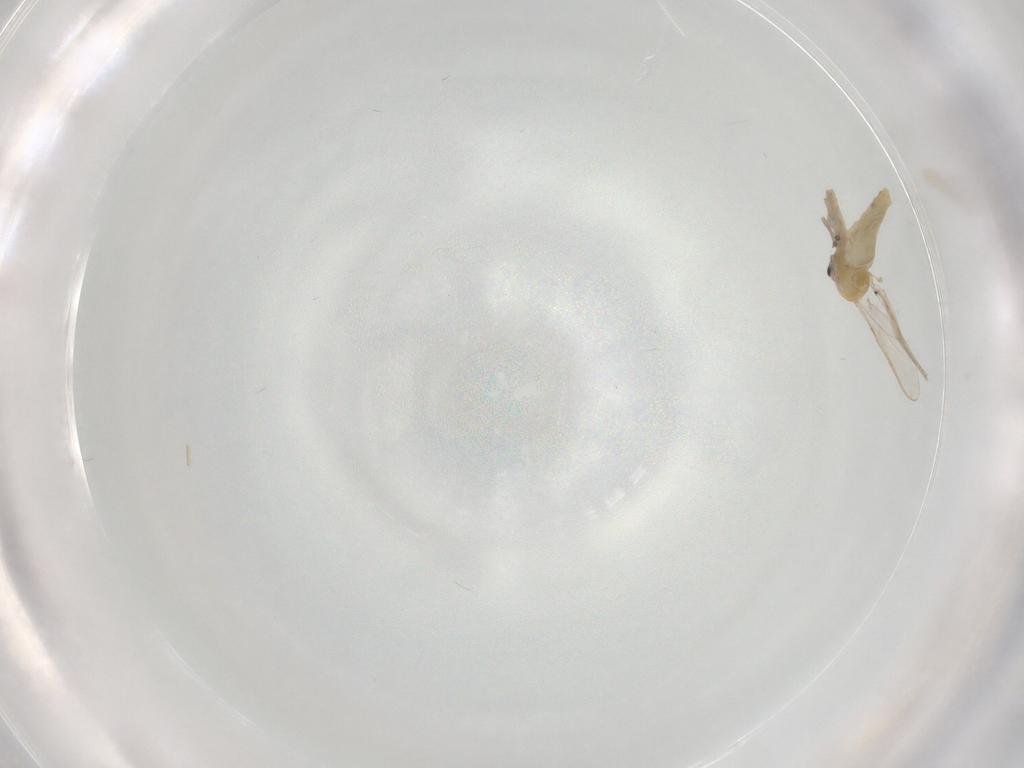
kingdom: Animalia
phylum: Arthropoda
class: Insecta
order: Diptera
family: Chironomidae
